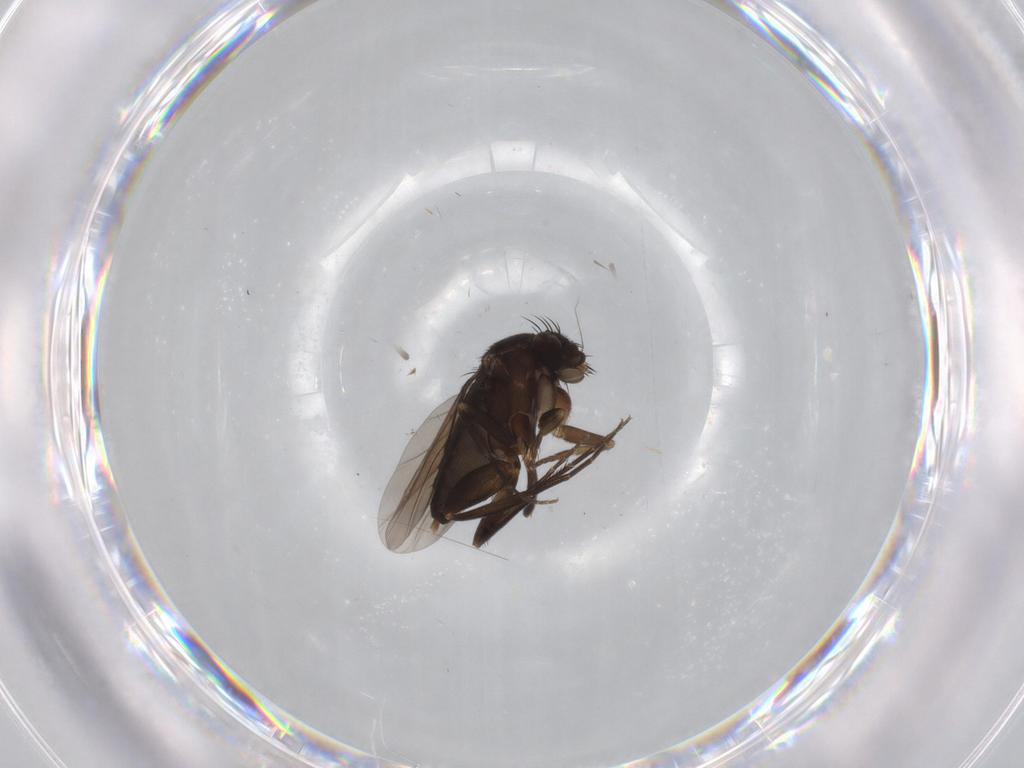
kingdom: Animalia
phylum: Arthropoda
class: Insecta
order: Diptera
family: Phoridae
